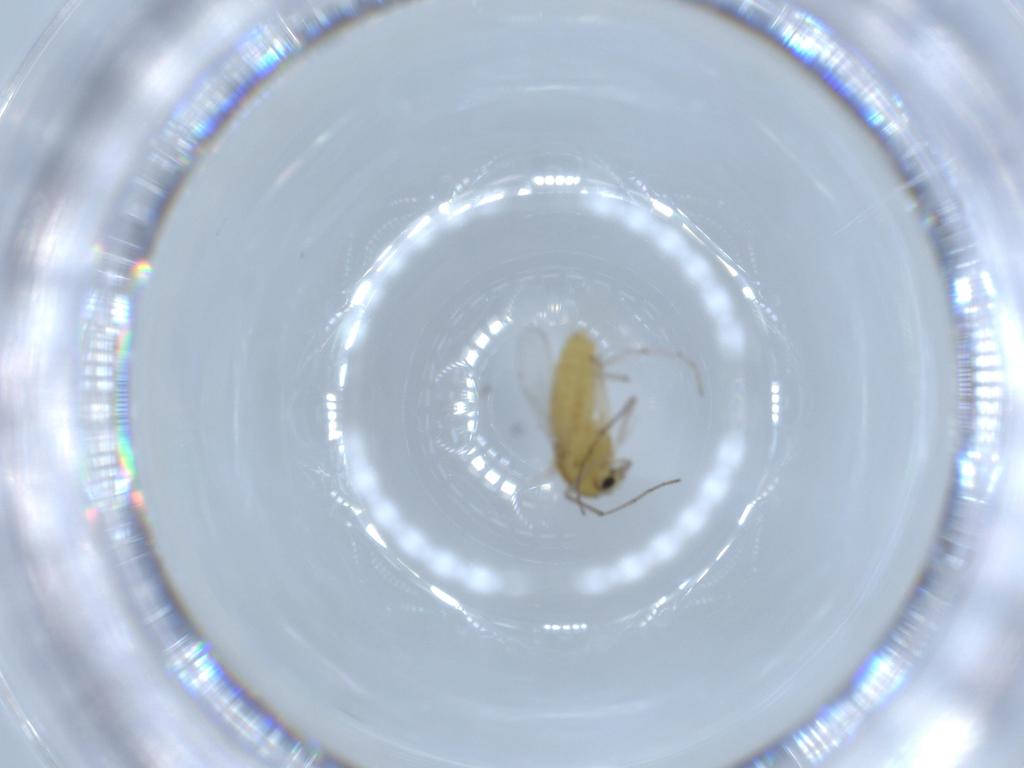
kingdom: Animalia
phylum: Arthropoda
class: Insecta
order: Diptera
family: Chironomidae
